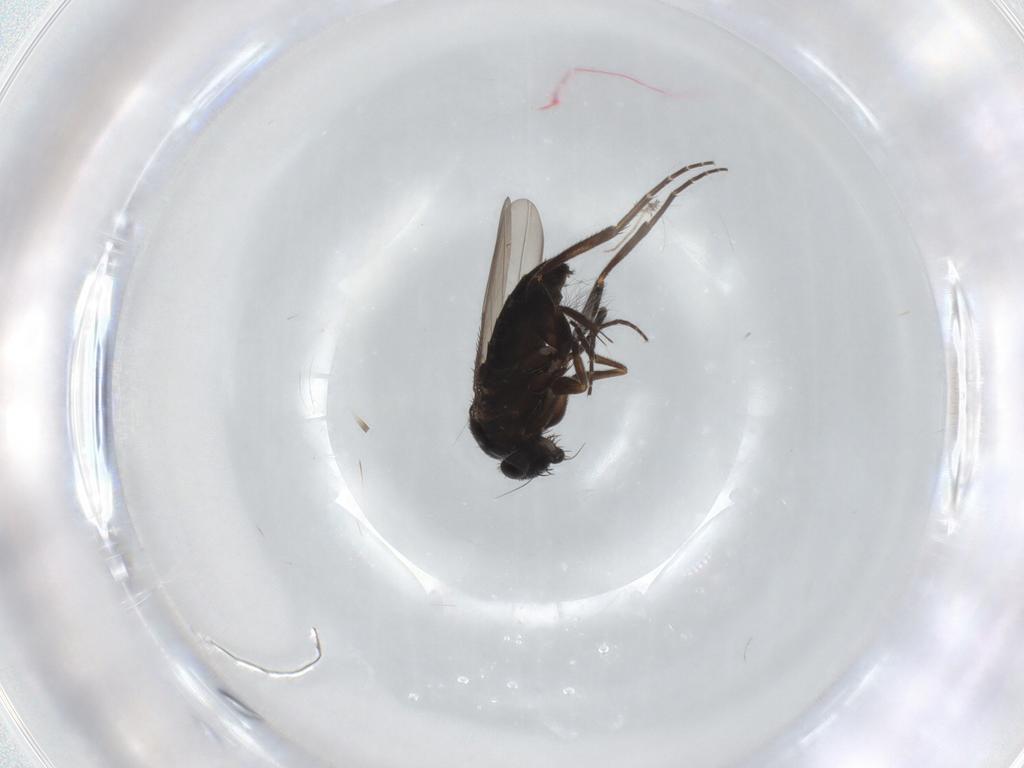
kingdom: Animalia
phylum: Arthropoda
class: Insecta
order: Diptera
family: Phoridae
